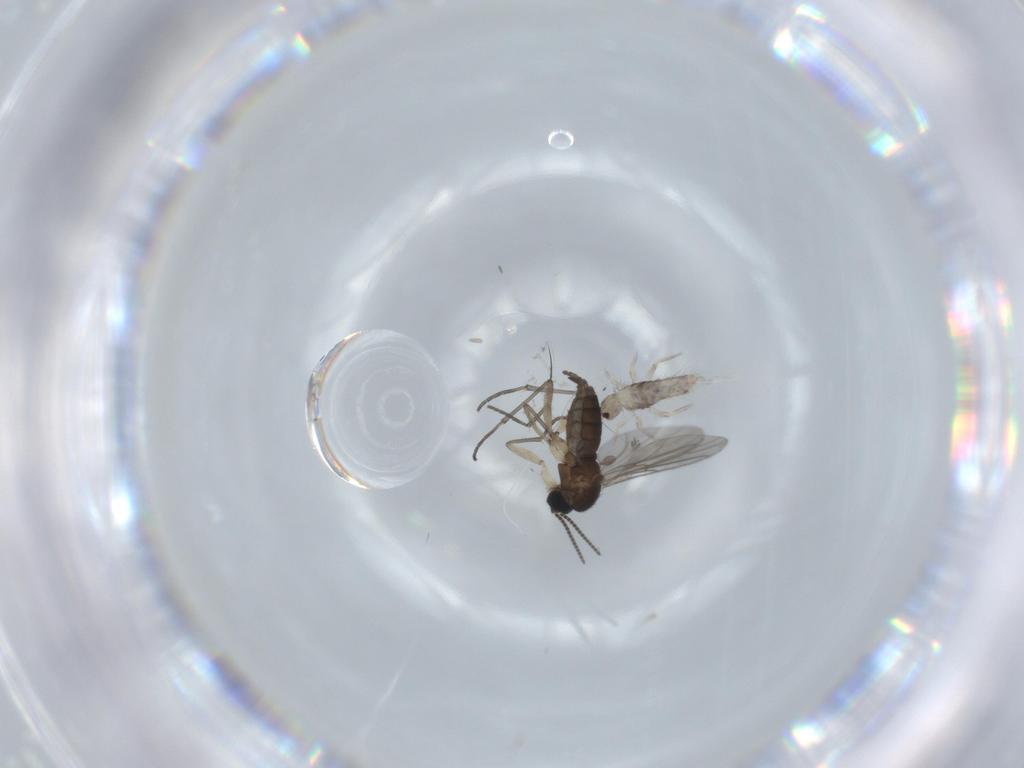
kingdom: Animalia
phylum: Arthropoda
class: Insecta
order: Diptera
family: Sciaridae
